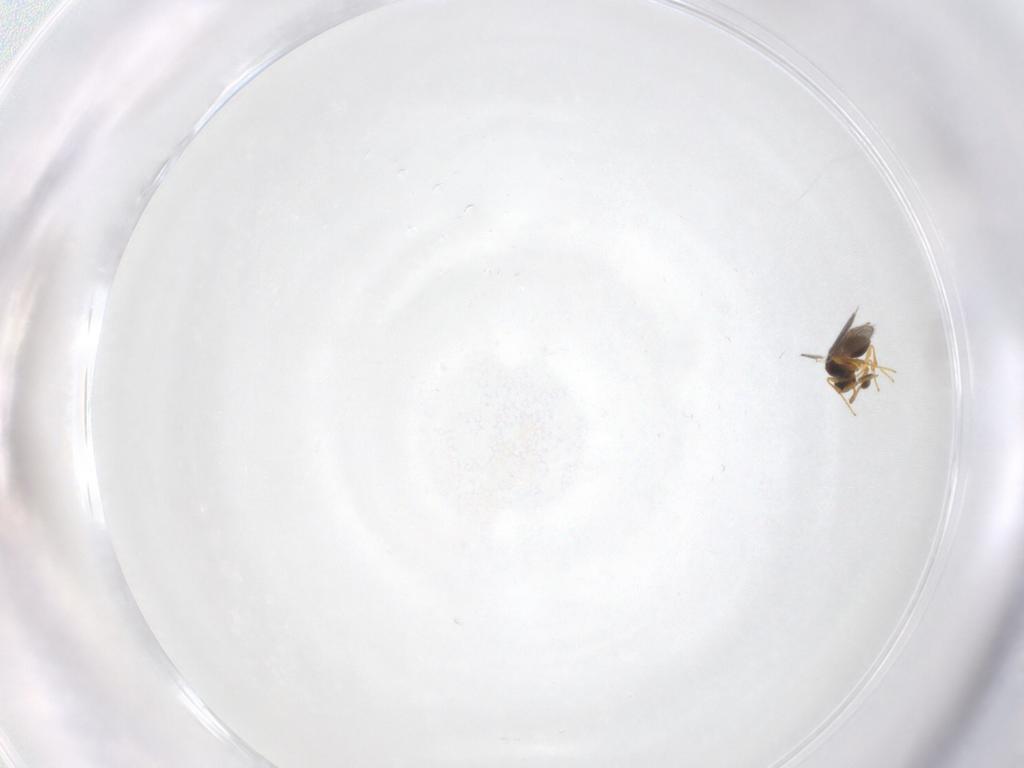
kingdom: Animalia
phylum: Arthropoda
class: Insecta
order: Hymenoptera
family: Platygastridae
